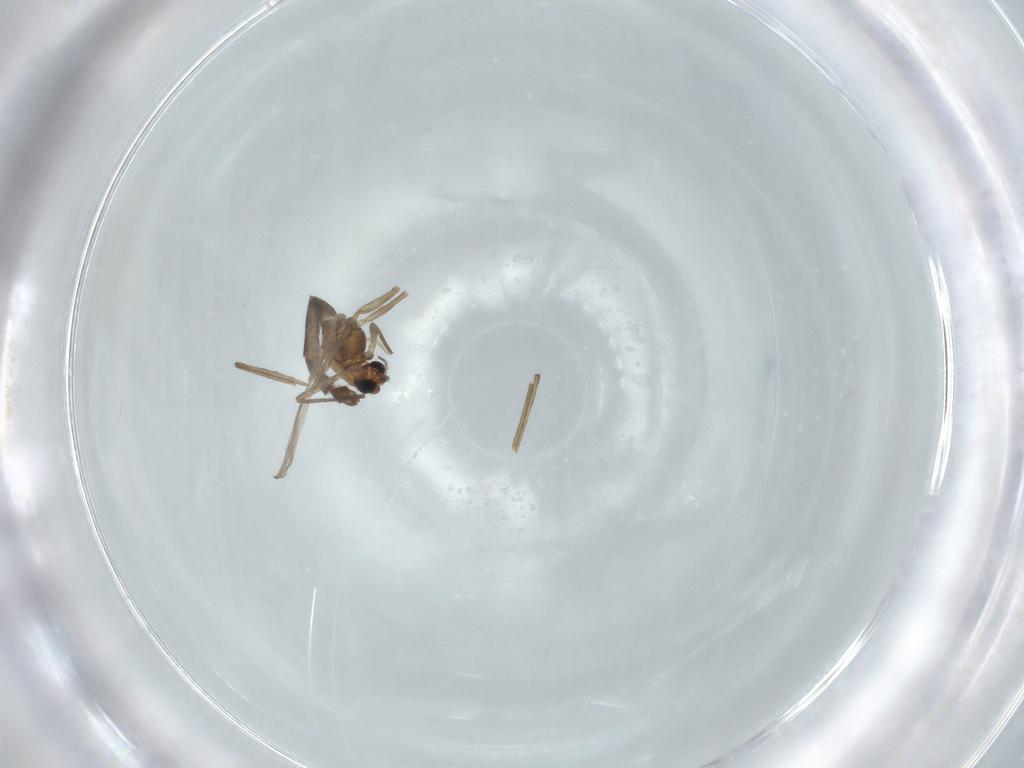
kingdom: Animalia
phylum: Arthropoda
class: Insecta
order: Diptera
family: Chironomidae
